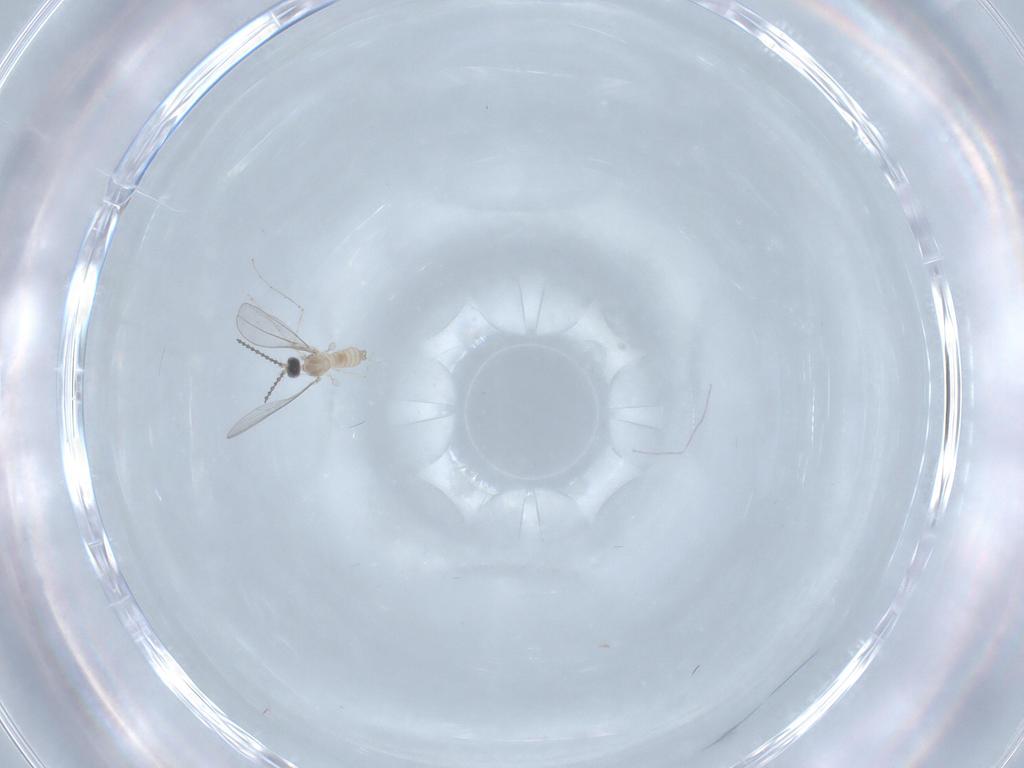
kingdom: Animalia
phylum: Arthropoda
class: Insecta
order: Diptera
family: Cecidomyiidae
